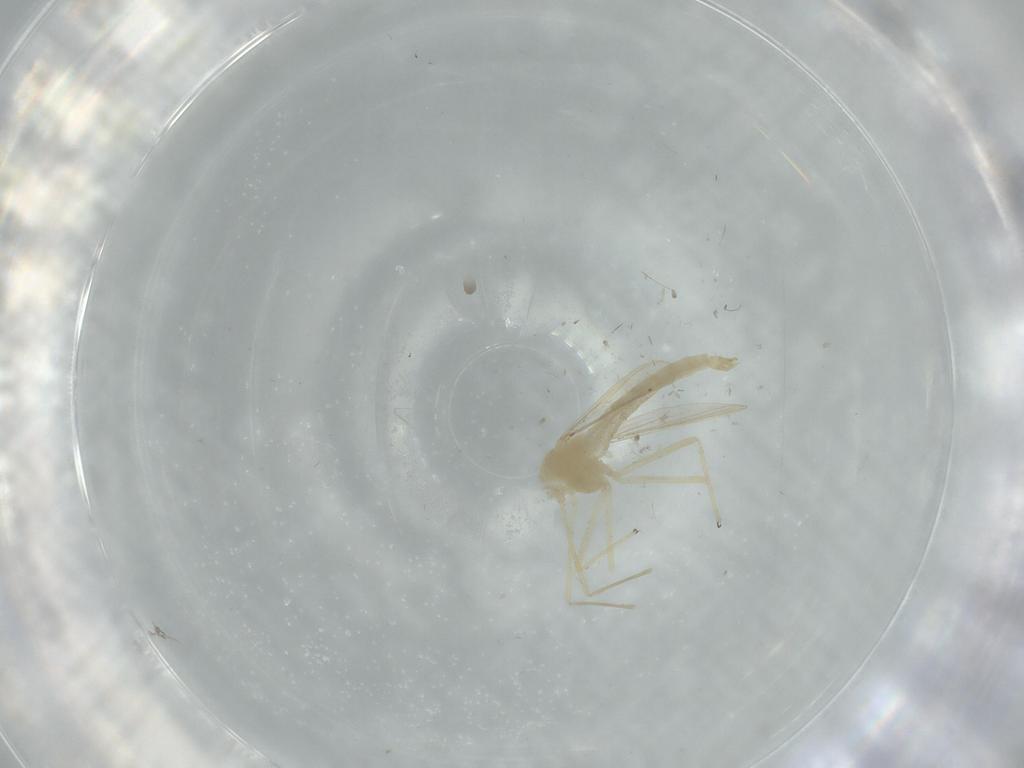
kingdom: Animalia
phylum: Arthropoda
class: Insecta
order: Diptera
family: Chironomidae
